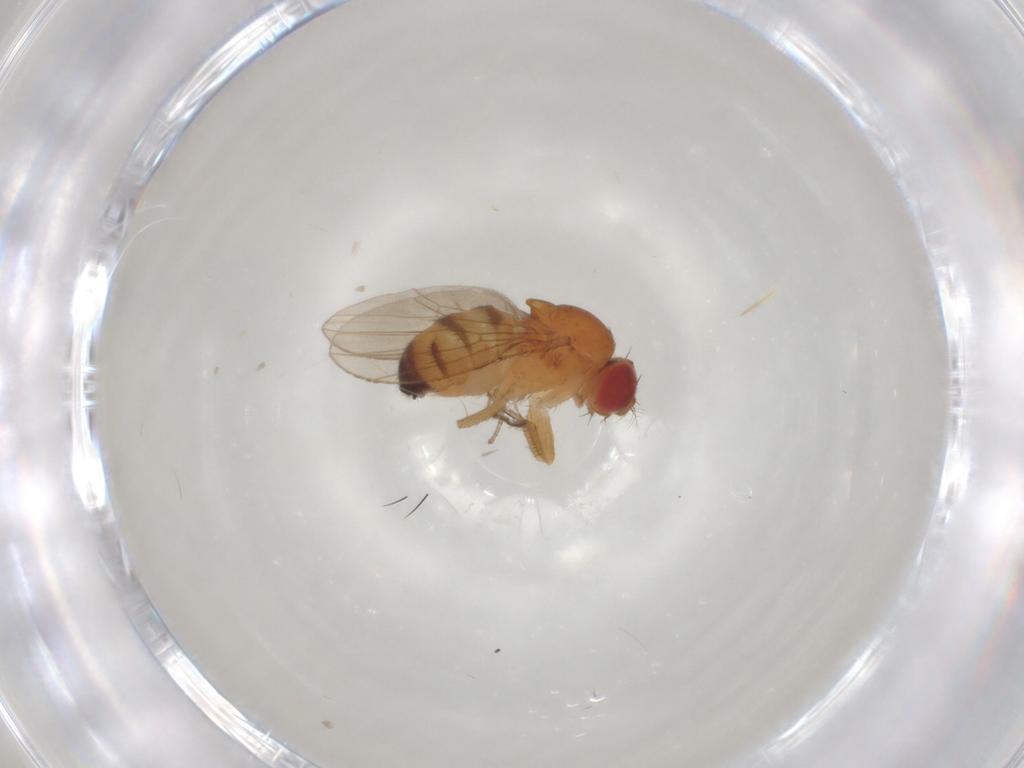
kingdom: Animalia
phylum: Arthropoda
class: Insecta
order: Diptera
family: Drosophilidae
